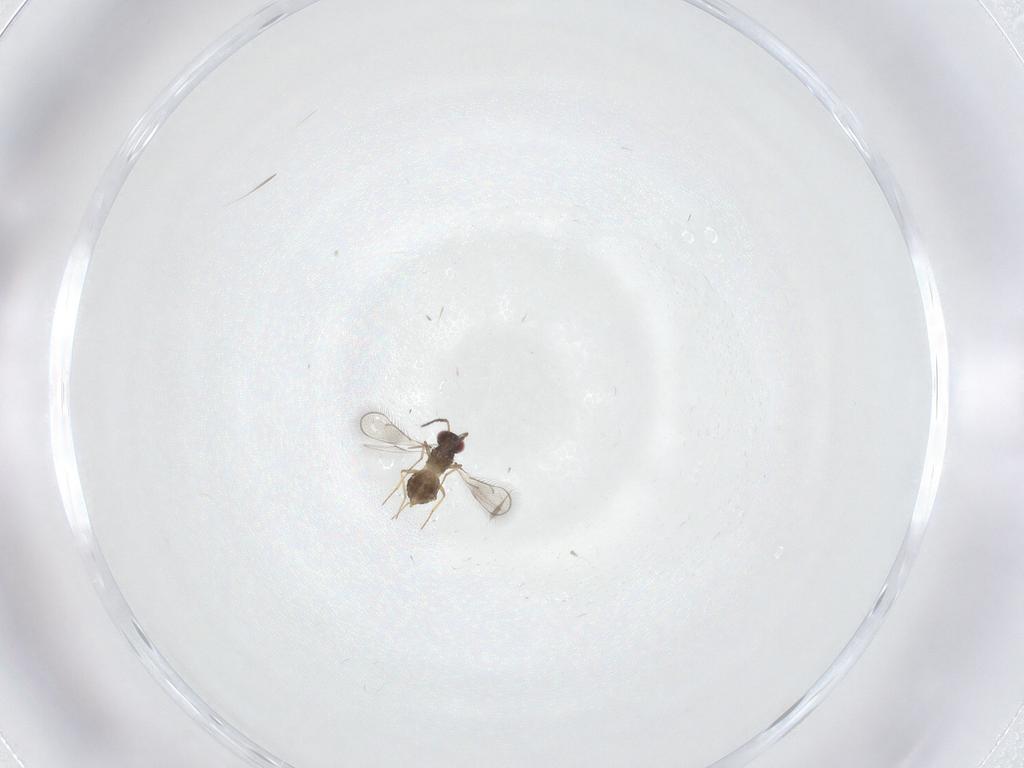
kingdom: Animalia
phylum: Arthropoda
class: Insecta
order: Hymenoptera
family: Eulophidae
